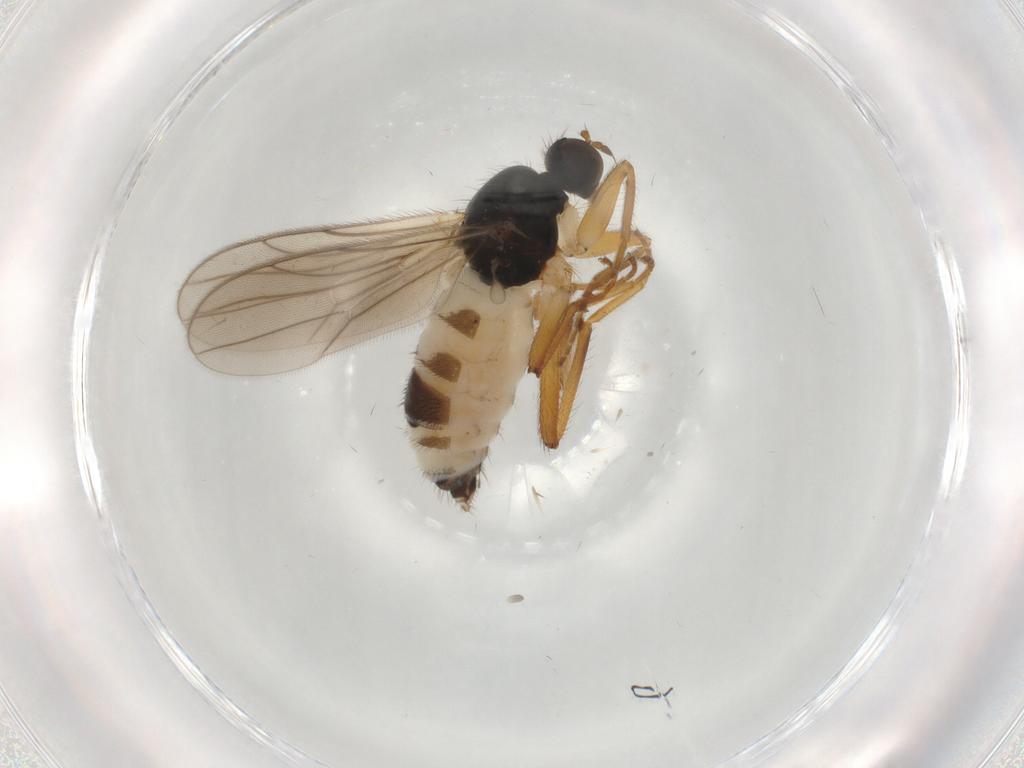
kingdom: Animalia
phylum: Arthropoda
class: Insecta
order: Diptera
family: Hybotidae
